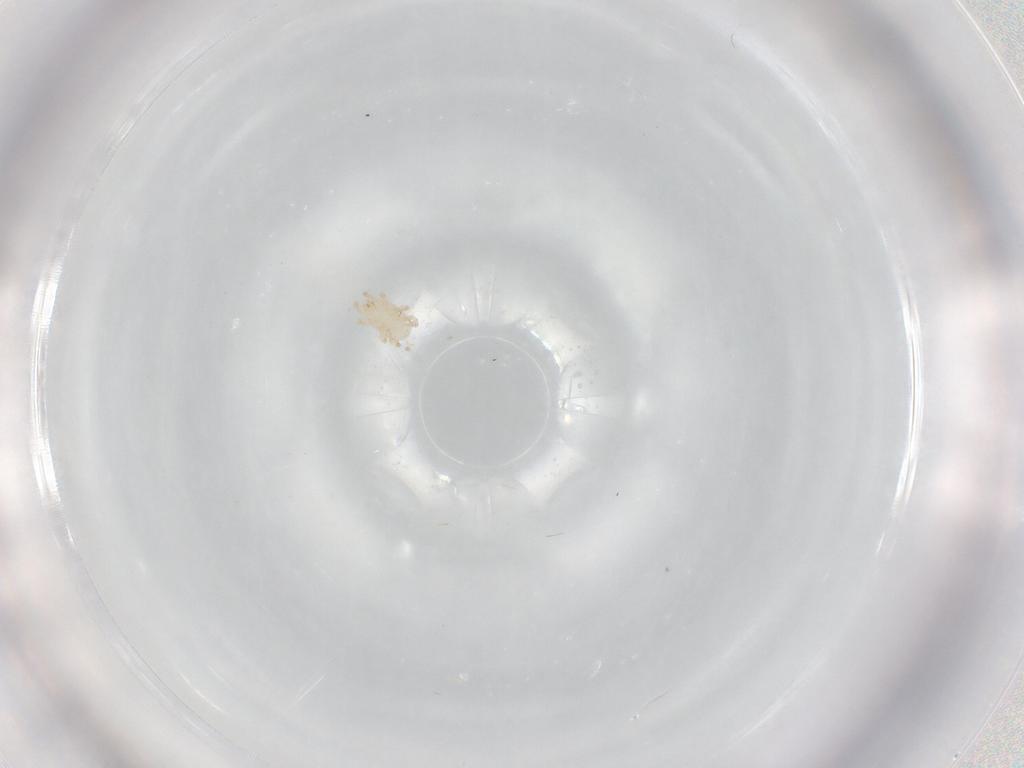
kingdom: Animalia
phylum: Arthropoda
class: Arachnida
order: Mesostigmata
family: Melicharidae
